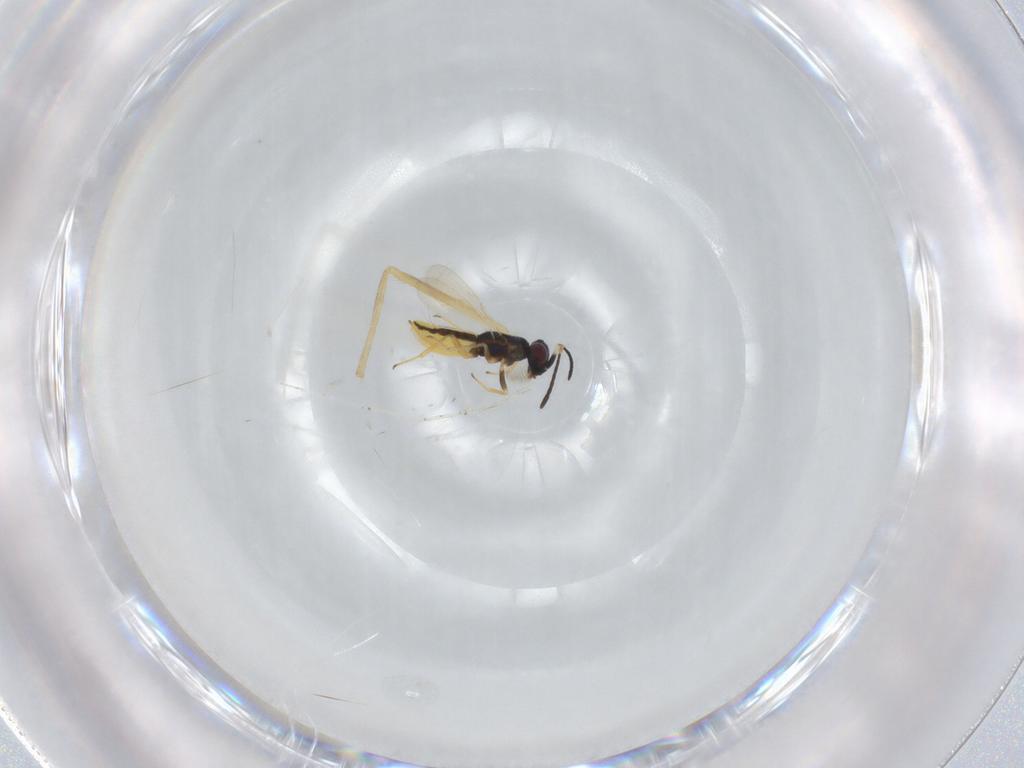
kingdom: Animalia
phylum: Arthropoda
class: Insecta
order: Hymenoptera
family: Encyrtidae
